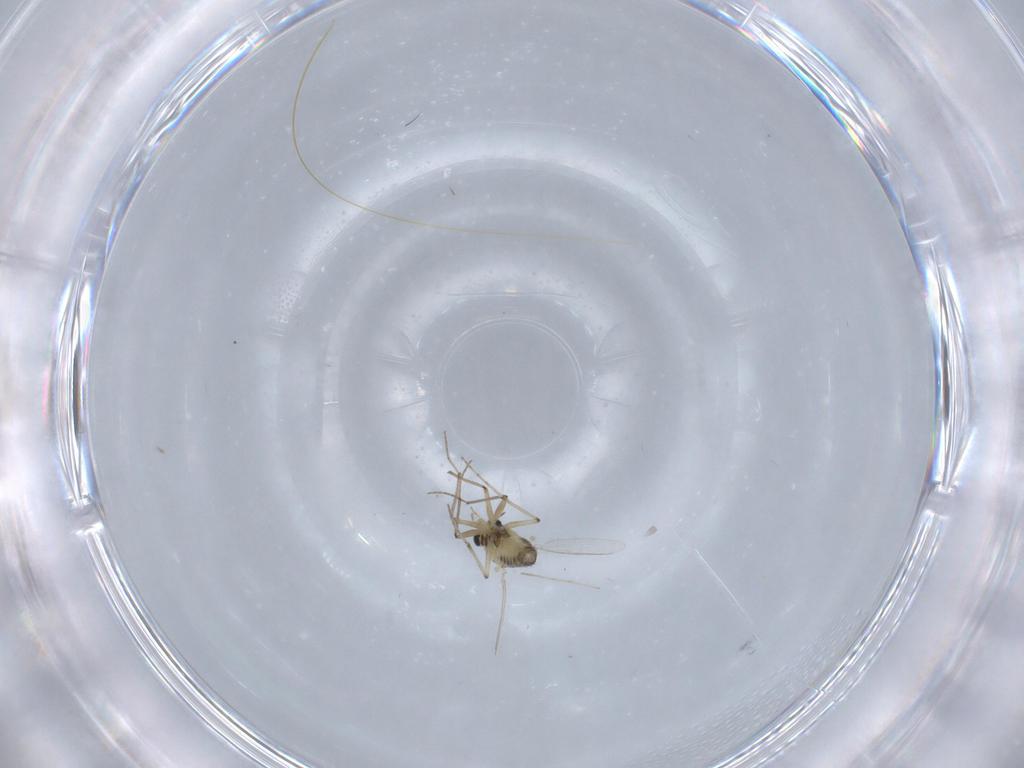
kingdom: Animalia
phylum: Arthropoda
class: Insecta
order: Diptera
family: Chironomidae
